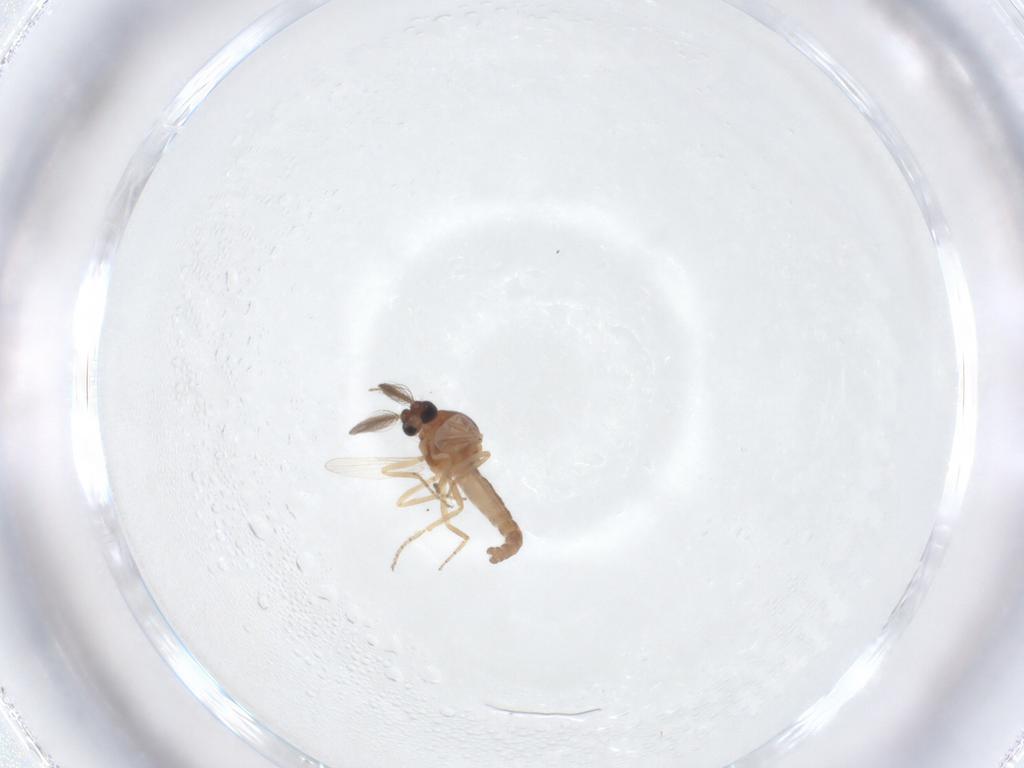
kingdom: Animalia
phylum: Arthropoda
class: Insecta
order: Diptera
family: Ceratopogonidae
